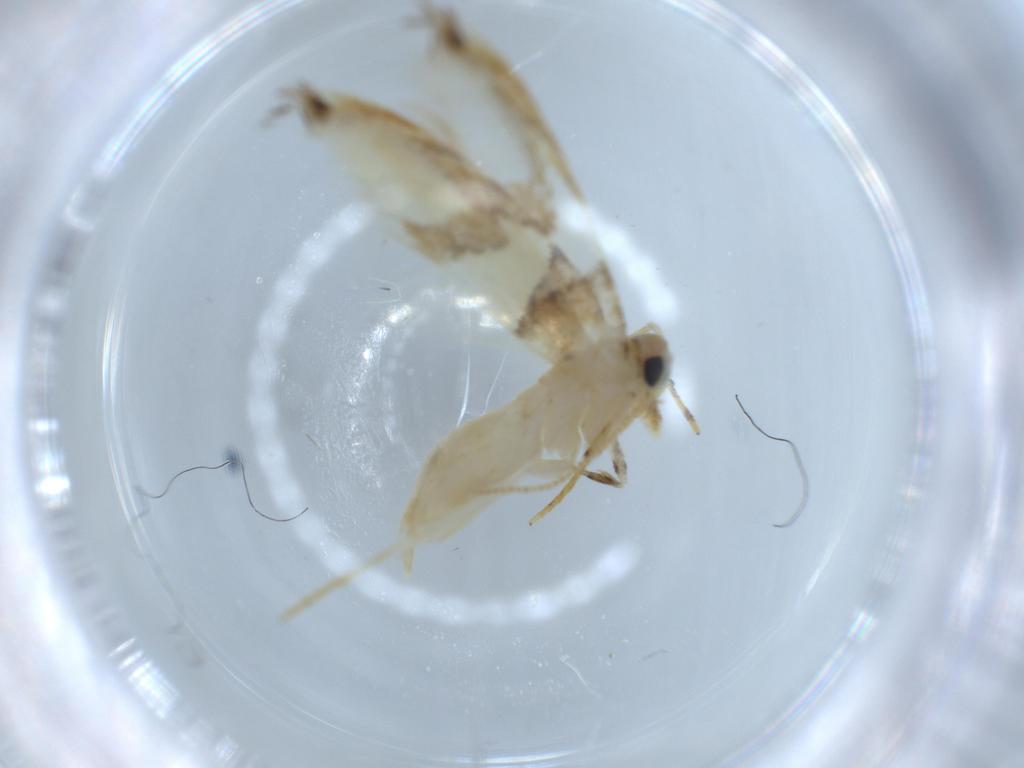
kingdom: Animalia
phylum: Arthropoda
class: Insecta
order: Lepidoptera
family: Tineidae
